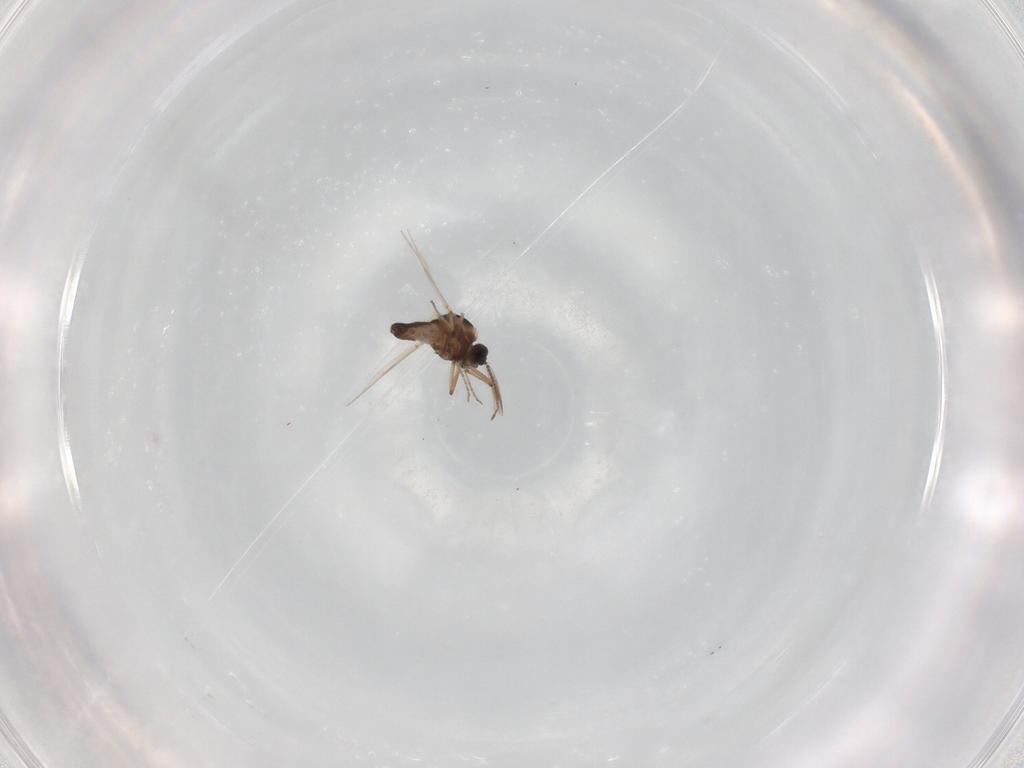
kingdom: Animalia
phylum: Arthropoda
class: Insecta
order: Diptera
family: Ceratopogonidae
